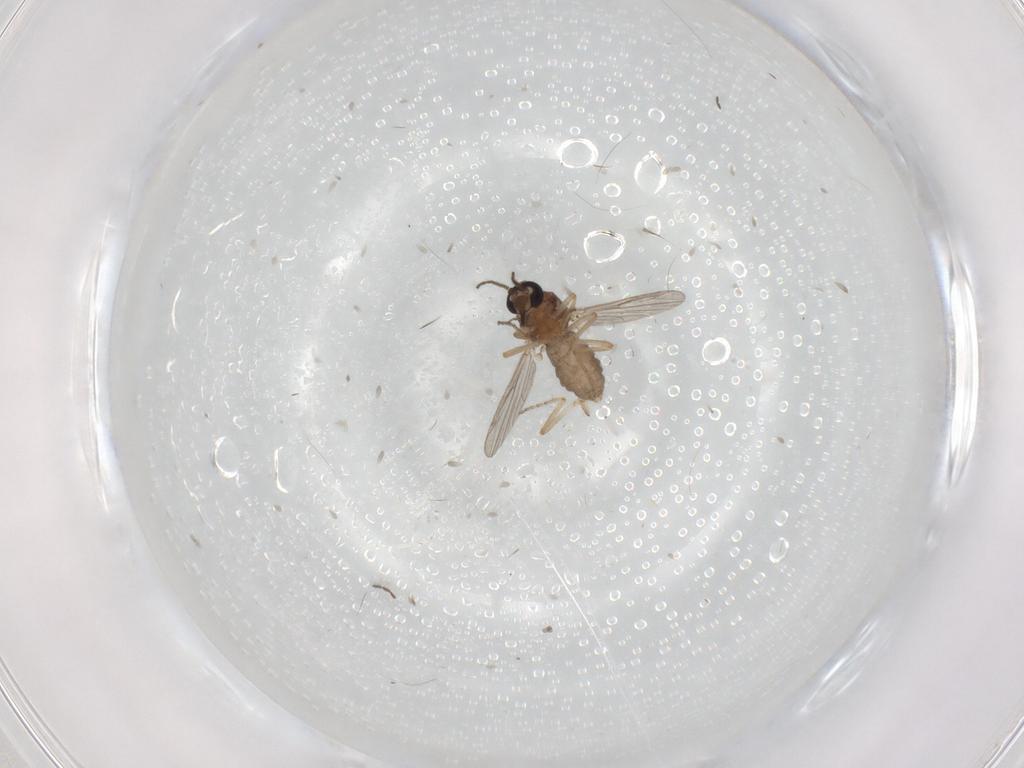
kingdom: Animalia
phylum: Arthropoda
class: Insecta
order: Diptera
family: Ceratopogonidae
